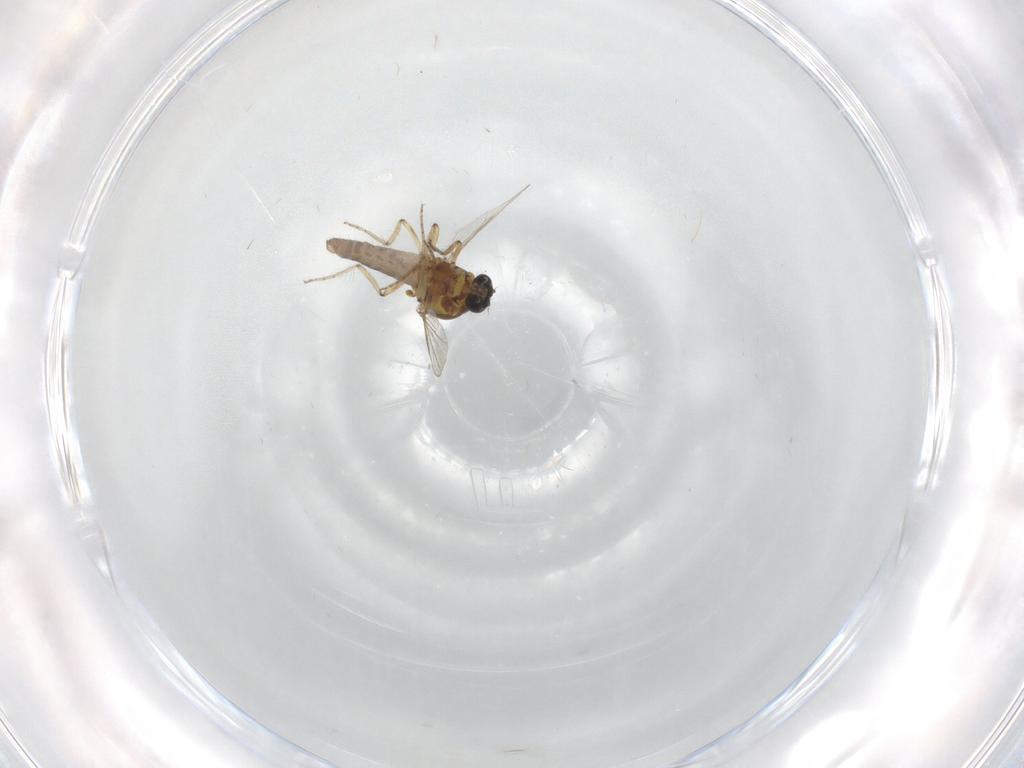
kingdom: Animalia
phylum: Arthropoda
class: Insecta
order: Diptera
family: Ceratopogonidae
